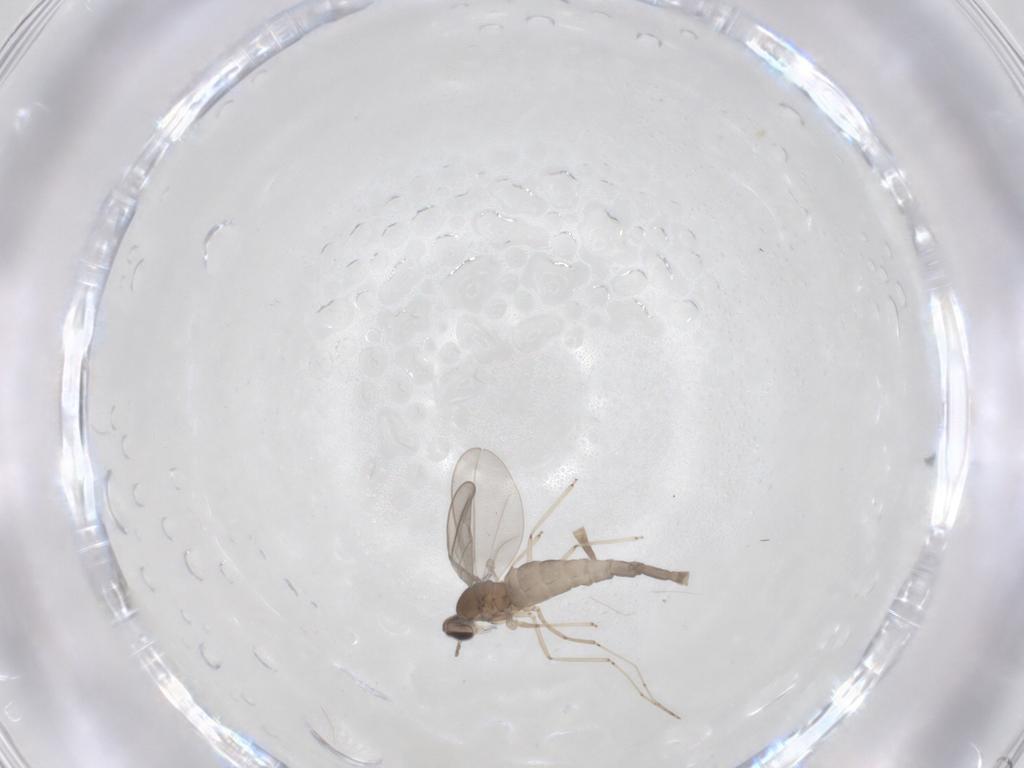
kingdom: Animalia
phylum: Arthropoda
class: Insecta
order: Diptera
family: Cecidomyiidae
